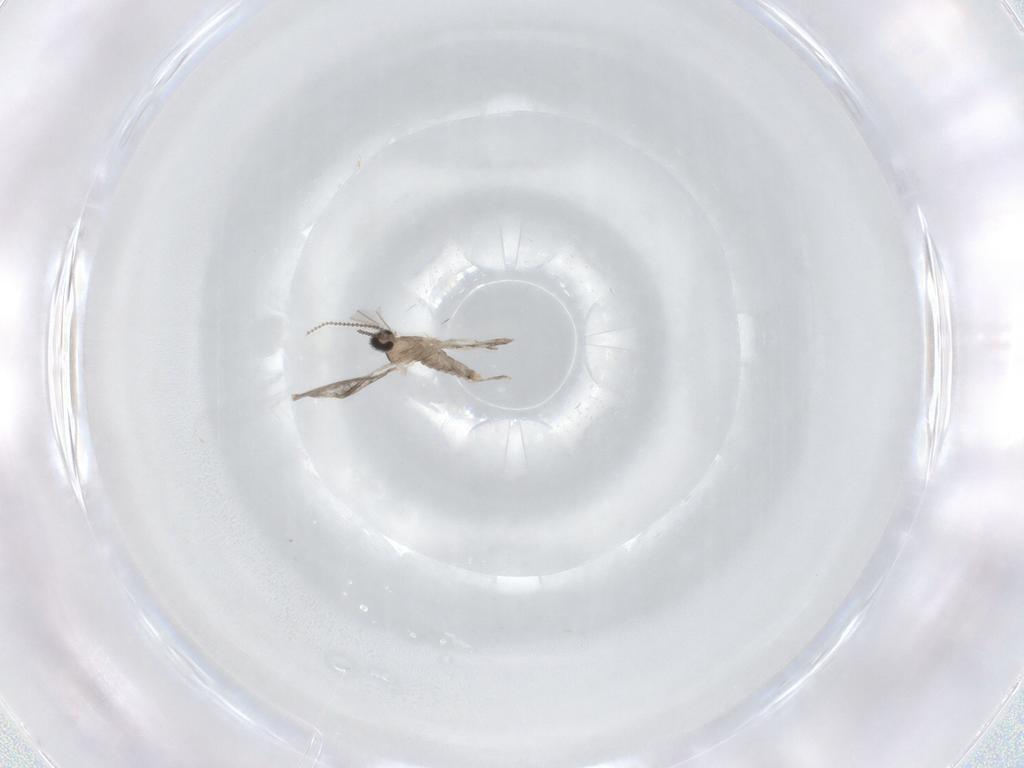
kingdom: Animalia
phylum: Arthropoda
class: Insecta
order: Diptera
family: Cecidomyiidae
